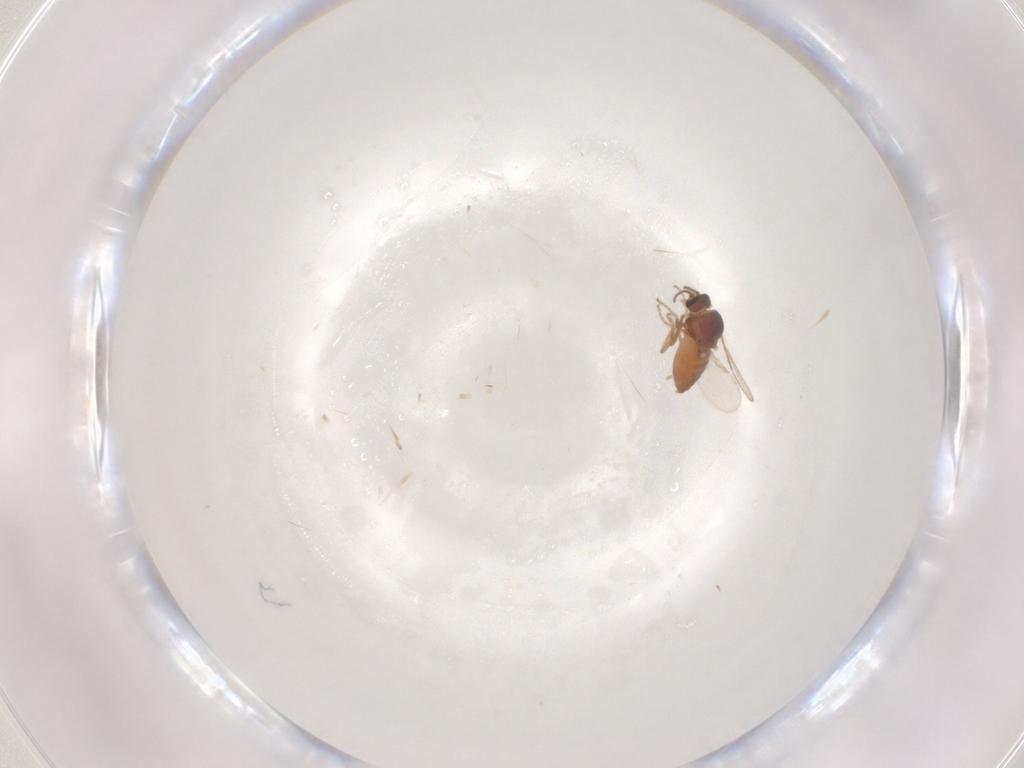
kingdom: Animalia
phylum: Arthropoda
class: Insecta
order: Diptera
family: Ceratopogonidae
